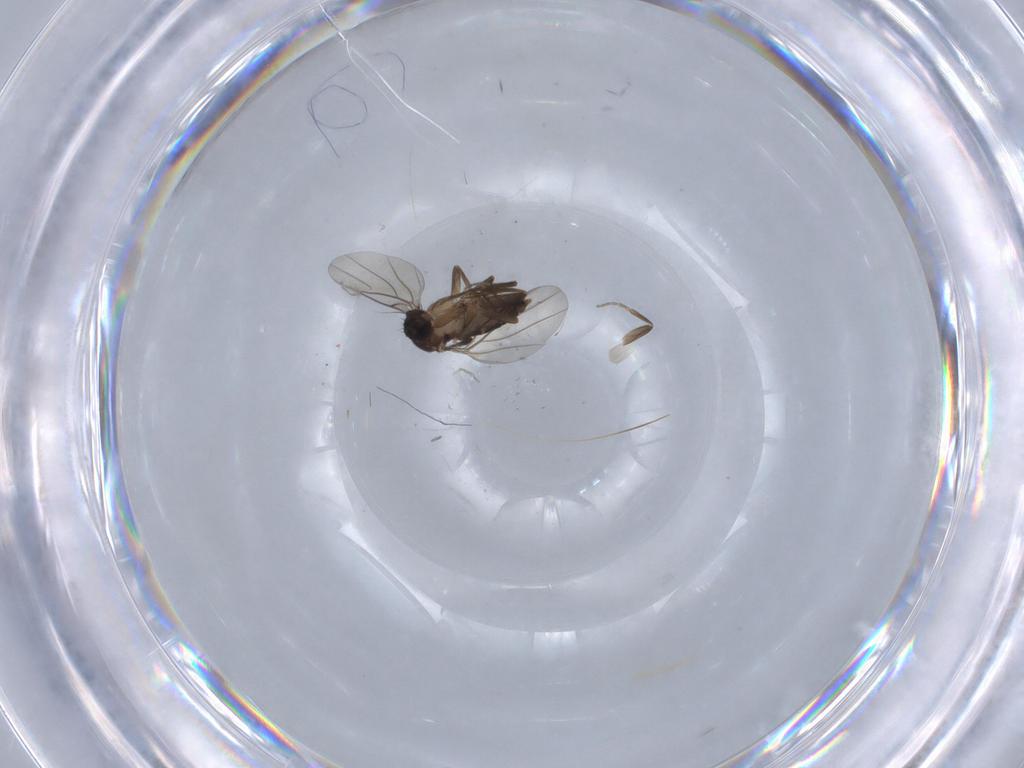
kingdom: Animalia
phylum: Arthropoda
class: Insecta
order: Diptera
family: Phoridae
